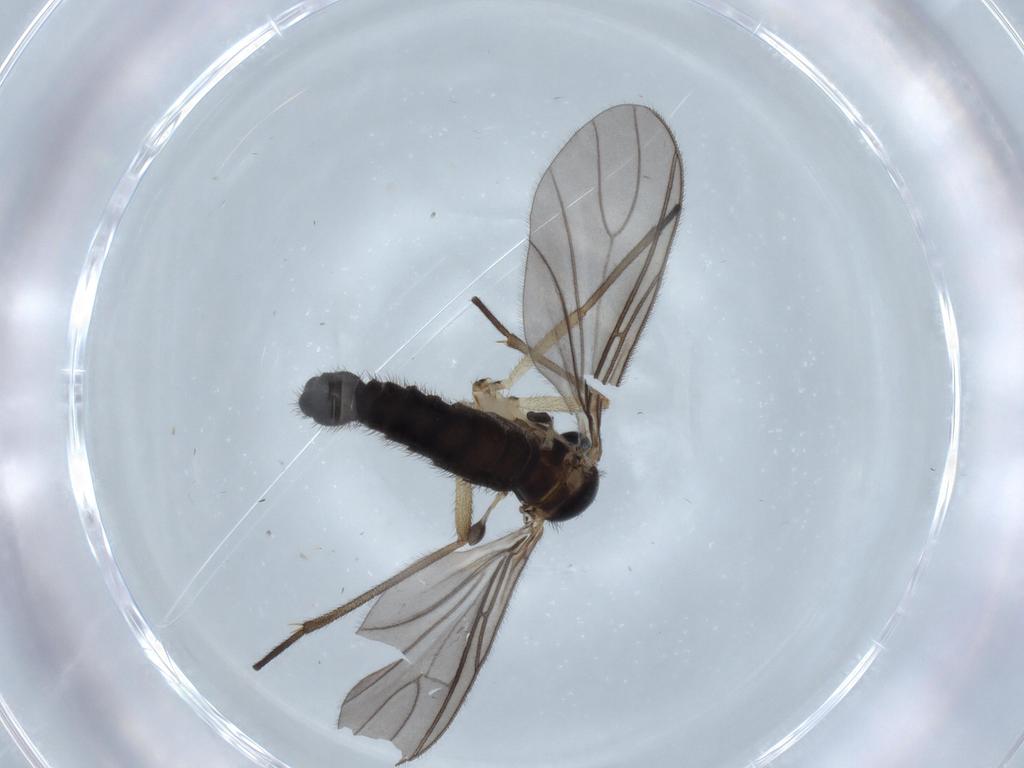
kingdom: Animalia
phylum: Arthropoda
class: Insecta
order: Diptera
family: Sciaridae
